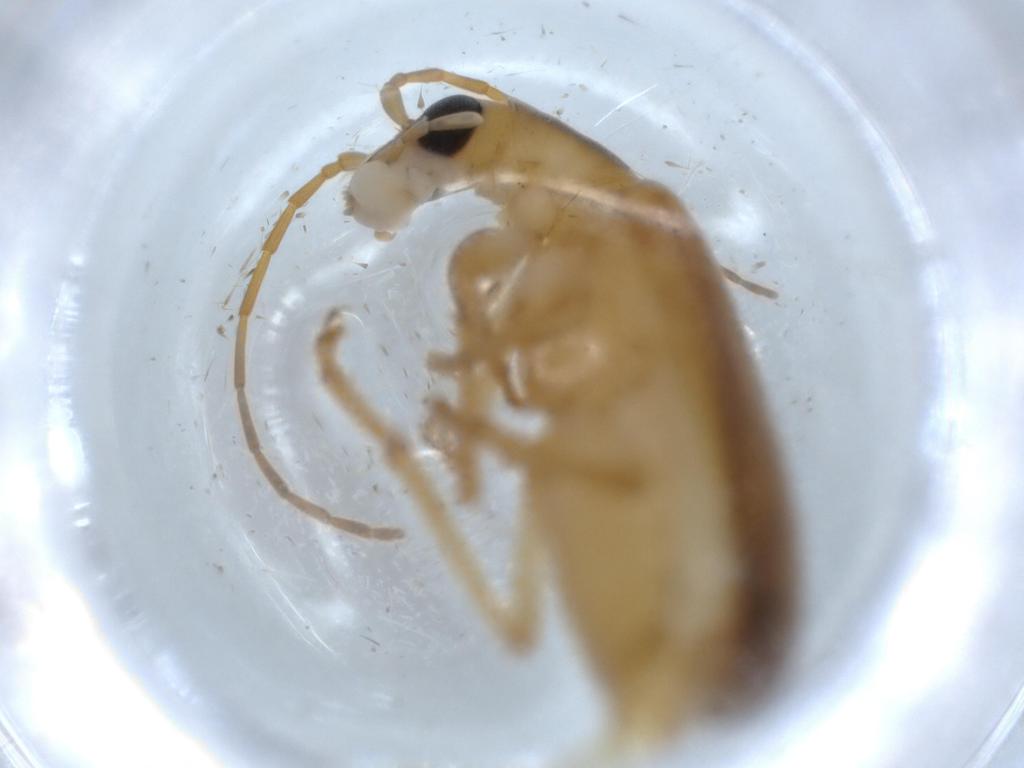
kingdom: Animalia
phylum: Arthropoda
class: Insecta
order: Coleoptera
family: Oedemeridae
